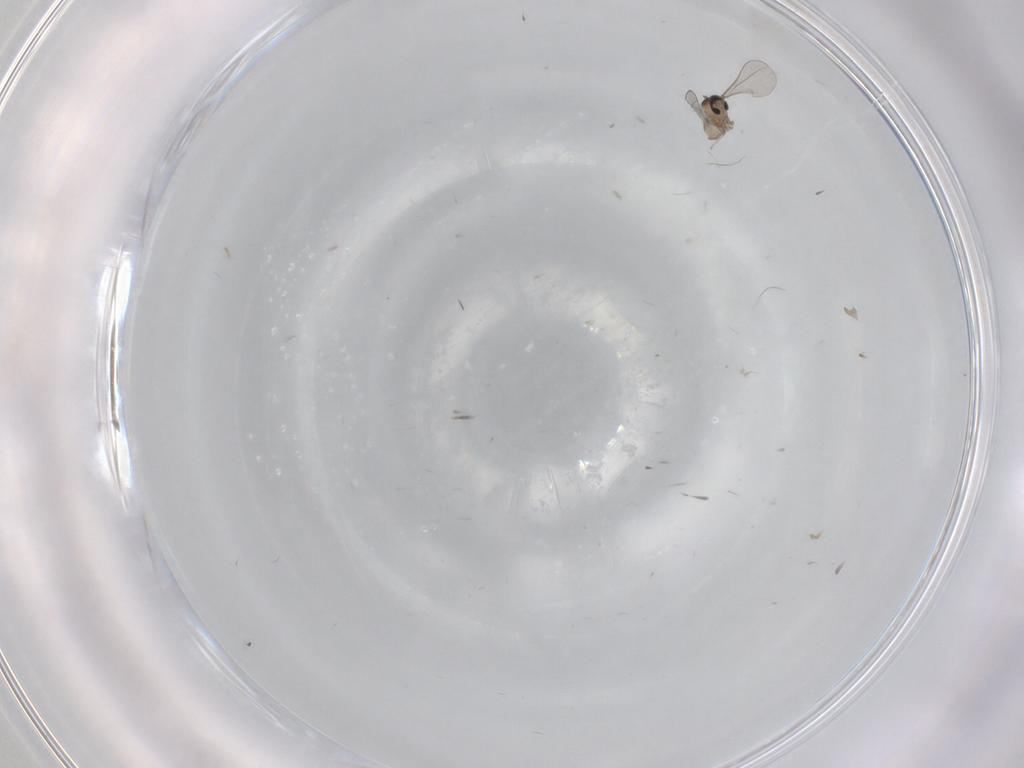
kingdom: Animalia
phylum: Arthropoda
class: Insecta
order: Diptera
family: Cecidomyiidae
